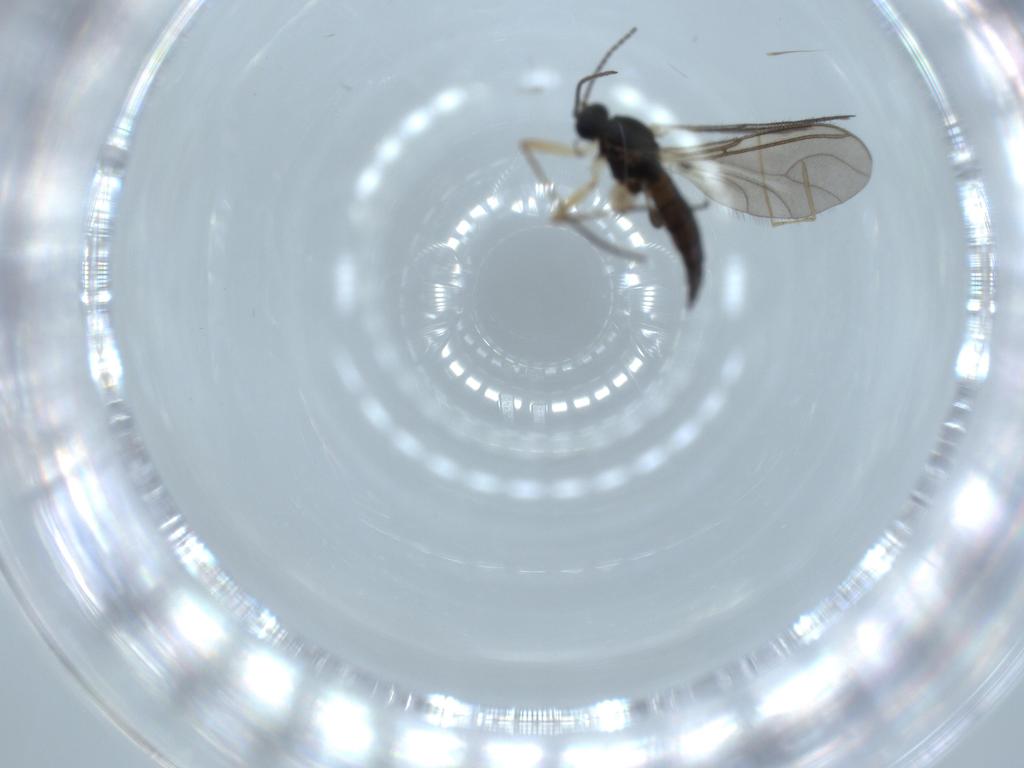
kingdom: Animalia
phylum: Arthropoda
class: Insecta
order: Diptera
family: Sciaridae
